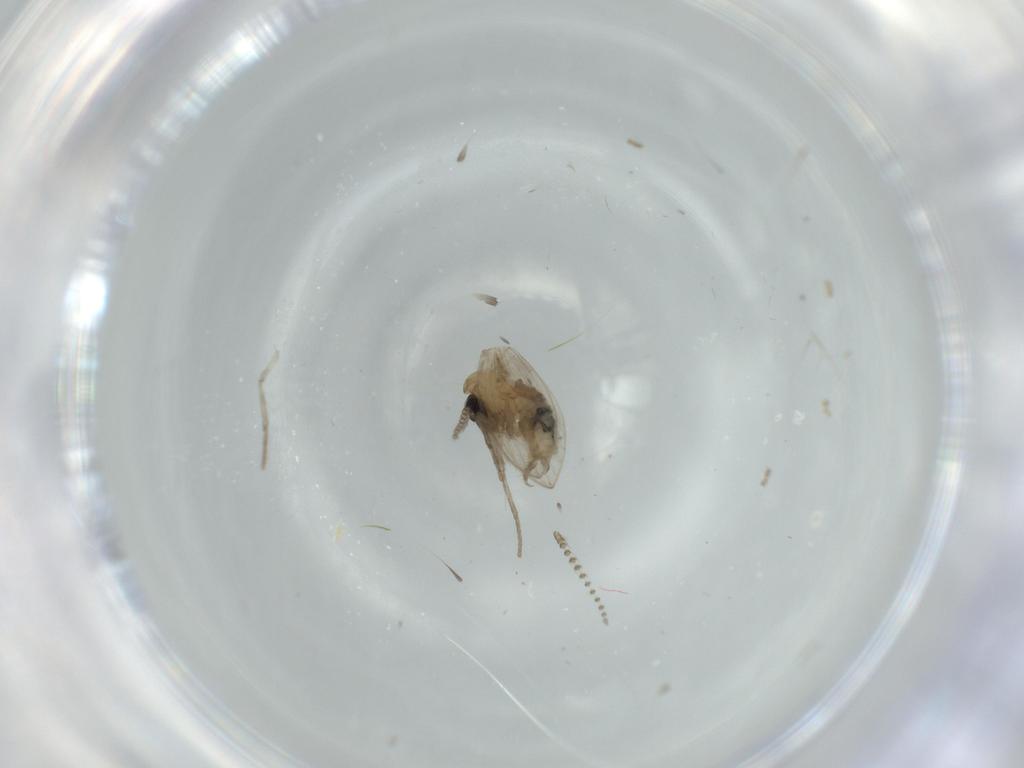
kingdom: Animalia
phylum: Arthropoda
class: Insecta
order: Diptera
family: Cecidomyiidae
